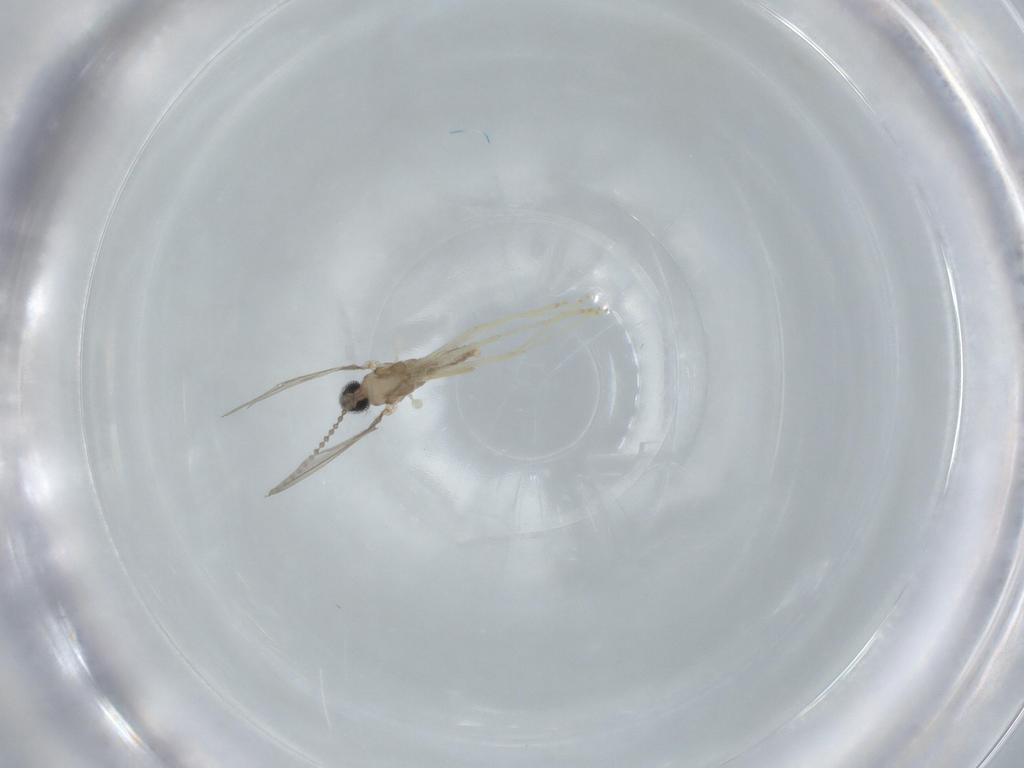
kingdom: Animalia
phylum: Arthropoda
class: Insecta
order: Diptera
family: Cecidomyiidae
